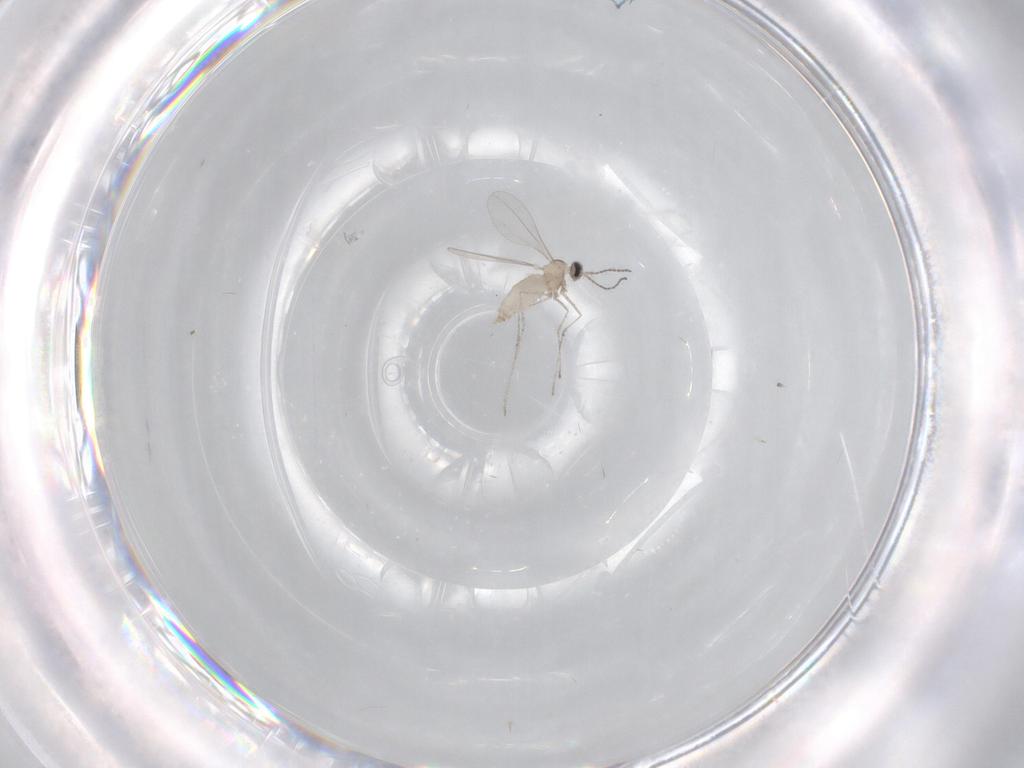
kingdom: Animalia
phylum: Arthropoda
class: Insecta
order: Diptera
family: Cecidomyiidae
